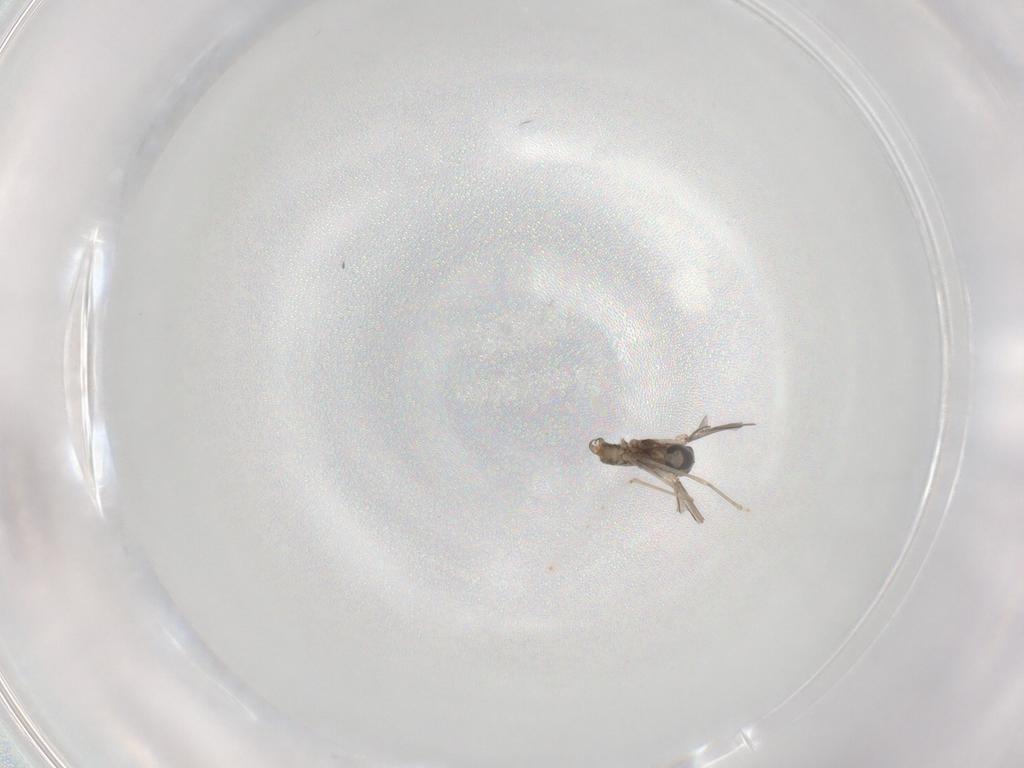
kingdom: Animalia
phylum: Arthropoda
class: Insecta
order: Diptera
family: Cecidomyiidae
